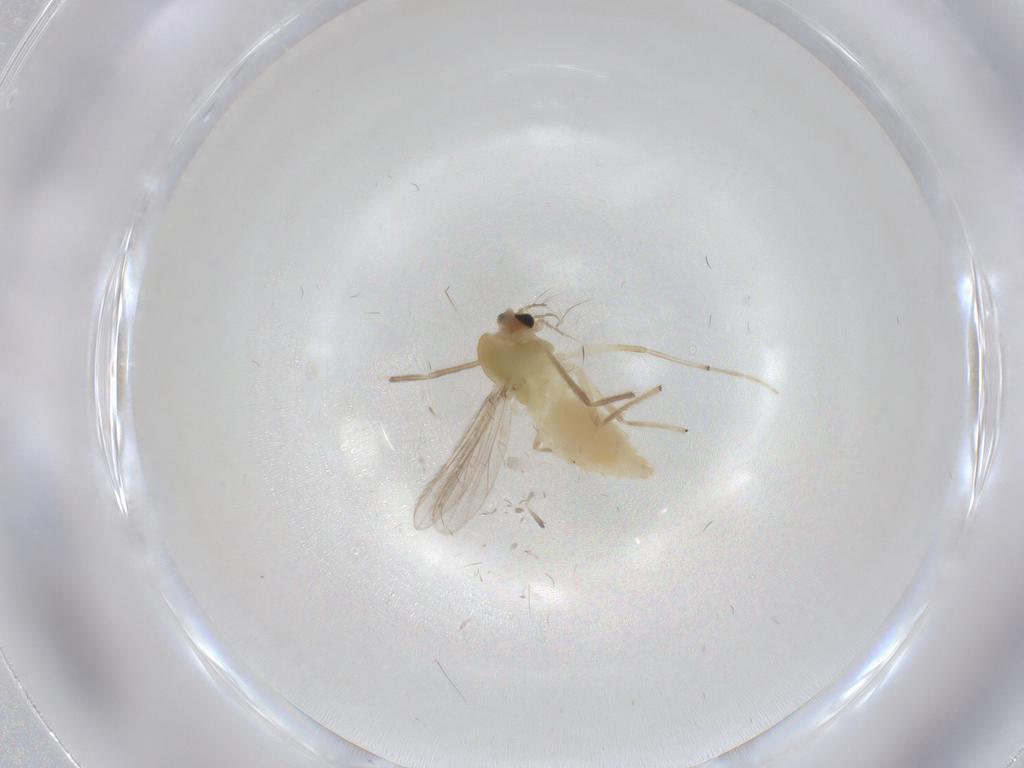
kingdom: Animalia
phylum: Arthropoda
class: Insecta
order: Diptera
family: Chironomidae
